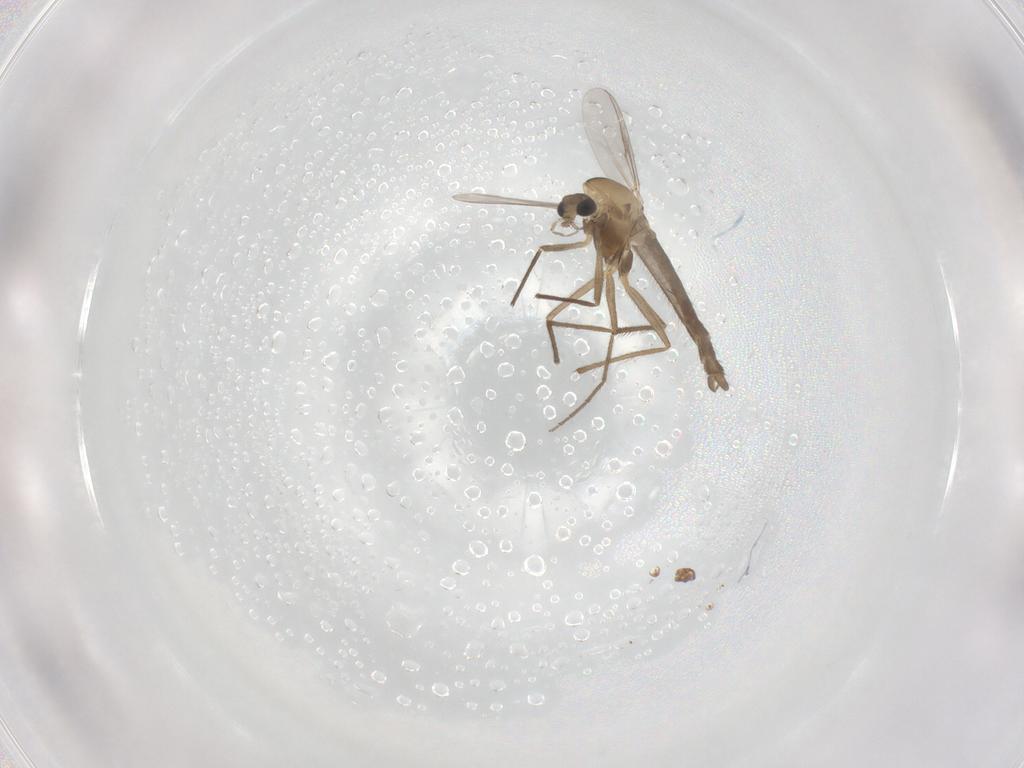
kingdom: Animalia
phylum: Arthropoda
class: Insecta
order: Diptera
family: Chironomidae
